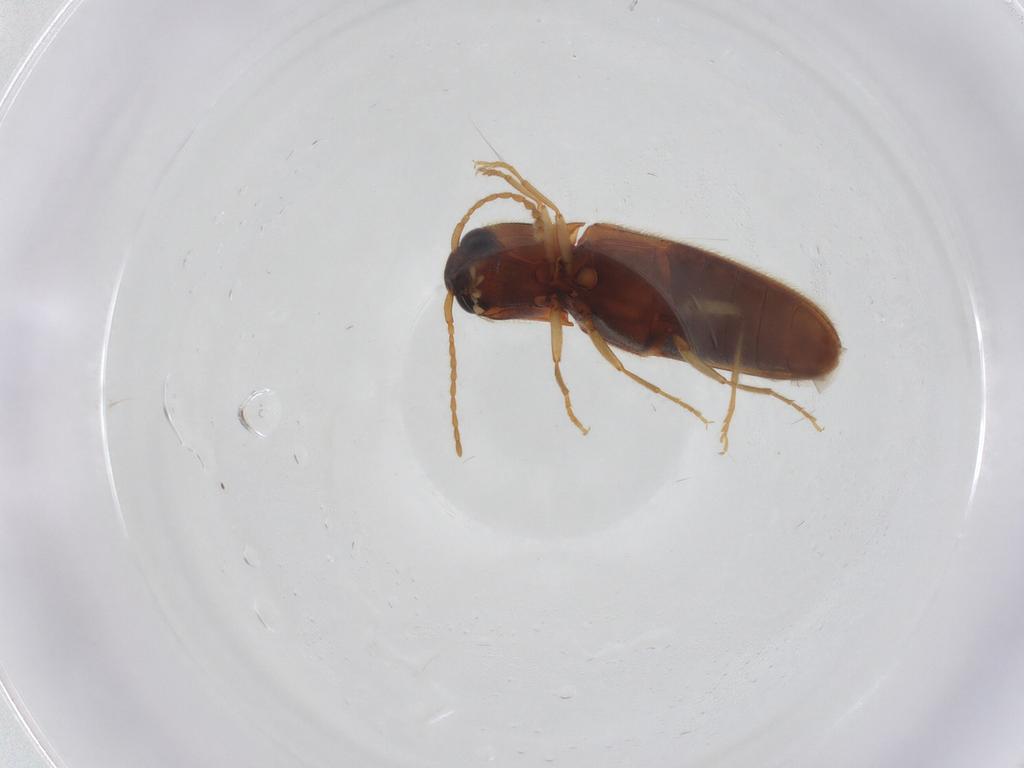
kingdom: Animalia
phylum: Arthropoda
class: Insecta
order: Coleoptera
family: Elateridae
